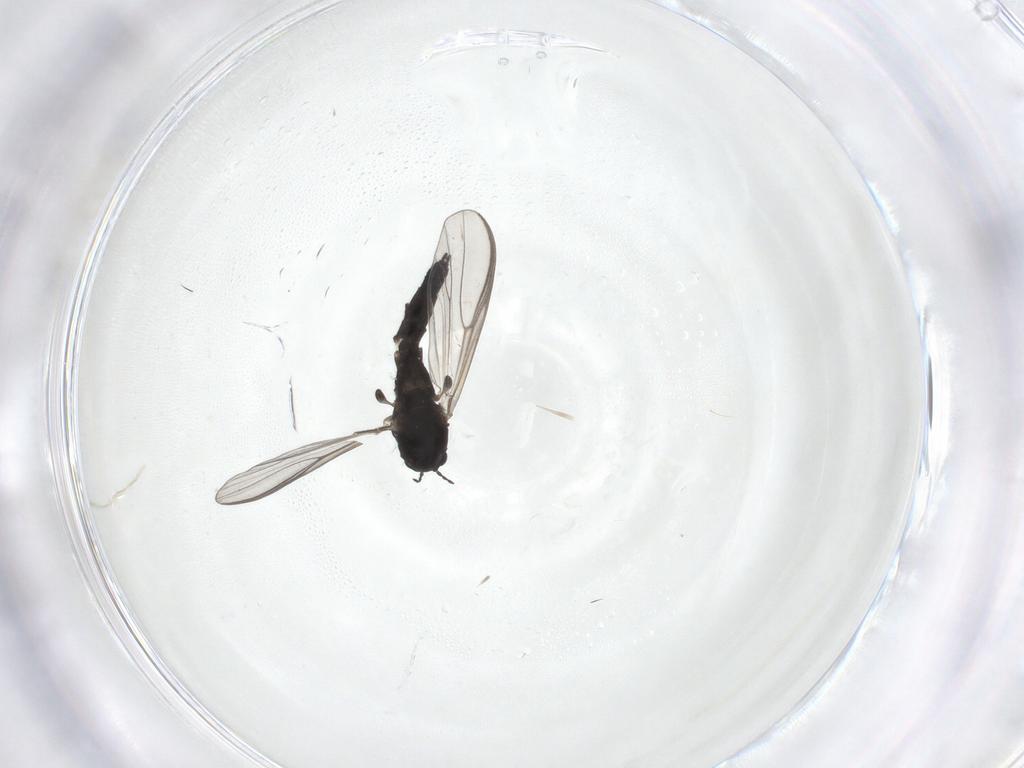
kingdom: Animalia
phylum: Arthropoda
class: Insecta
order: Diptera
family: Chironomidae
